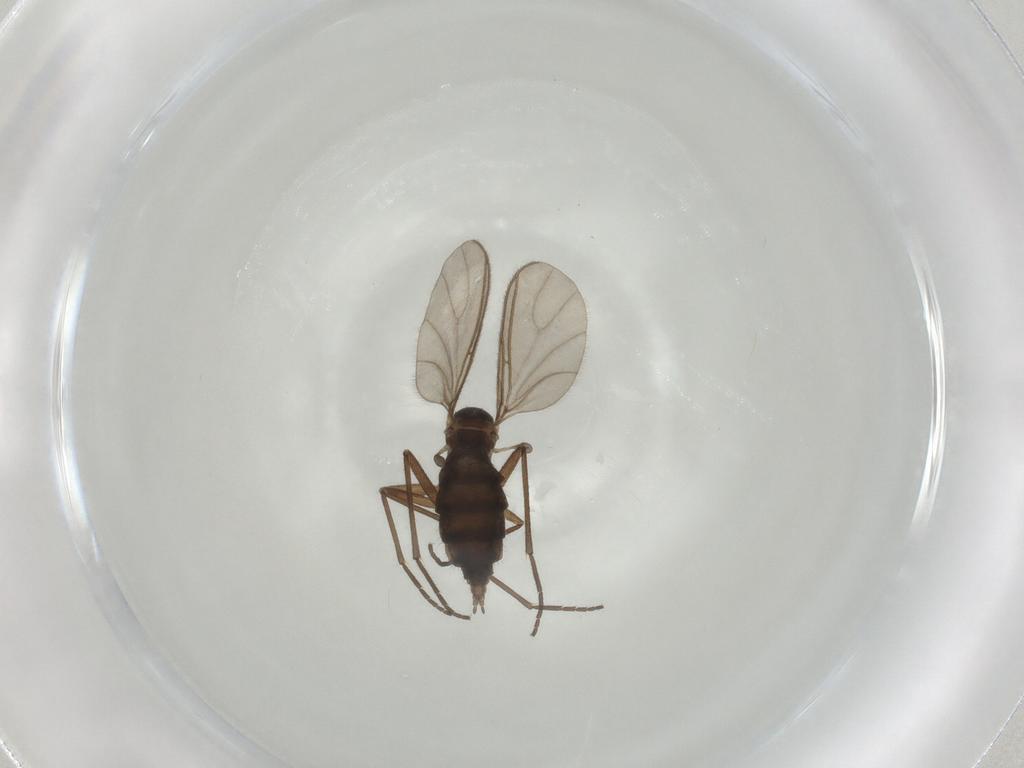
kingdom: Animalia
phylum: Arthropoda
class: Insecta
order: Diptera
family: Sciaridae
